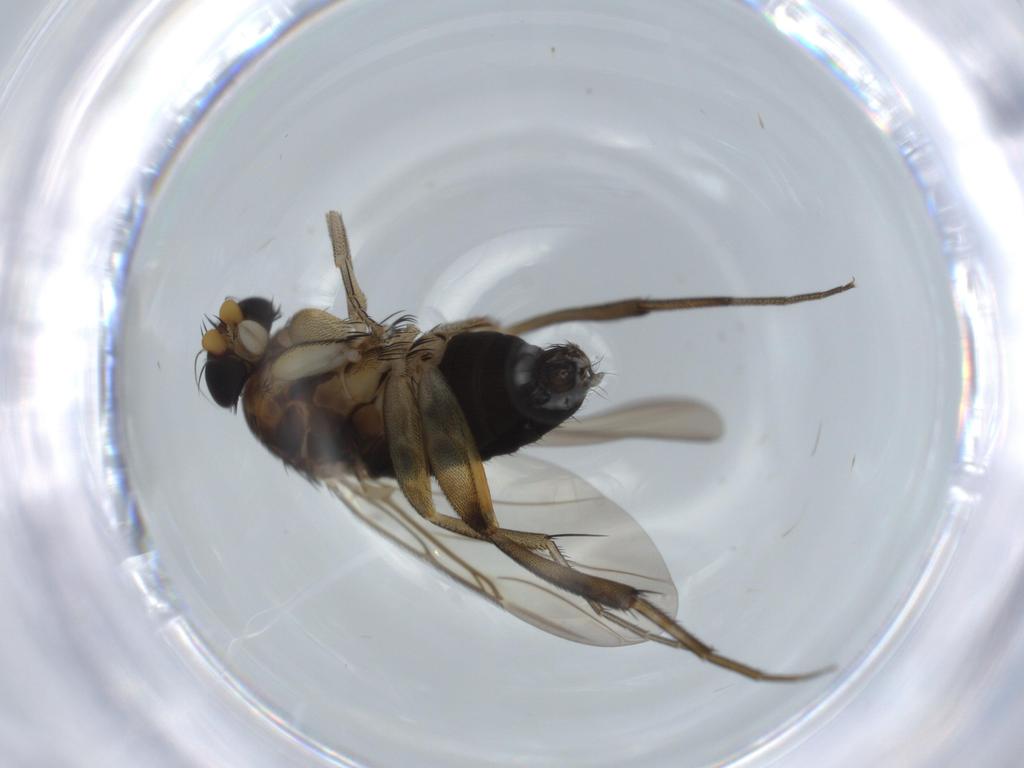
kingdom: Animalia
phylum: Arthropoda
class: Insecta
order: Diptera
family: Phoridae
